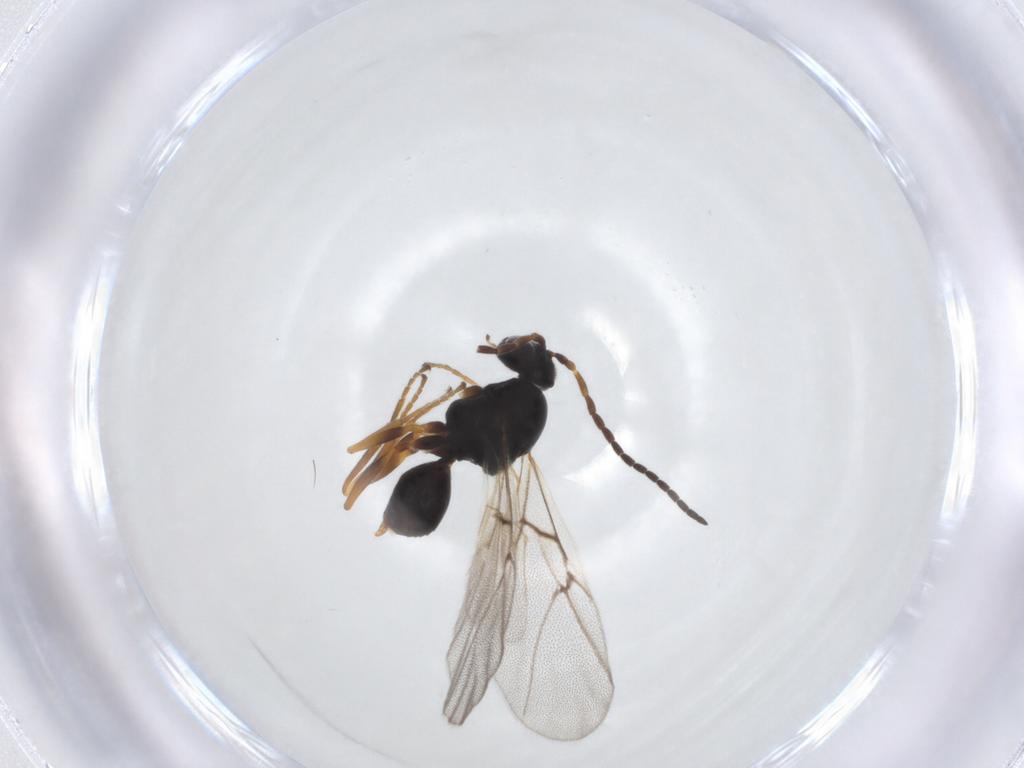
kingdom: Animalia
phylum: Arthropoda
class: Insecta
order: Hymenoptera
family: Cynipidae
